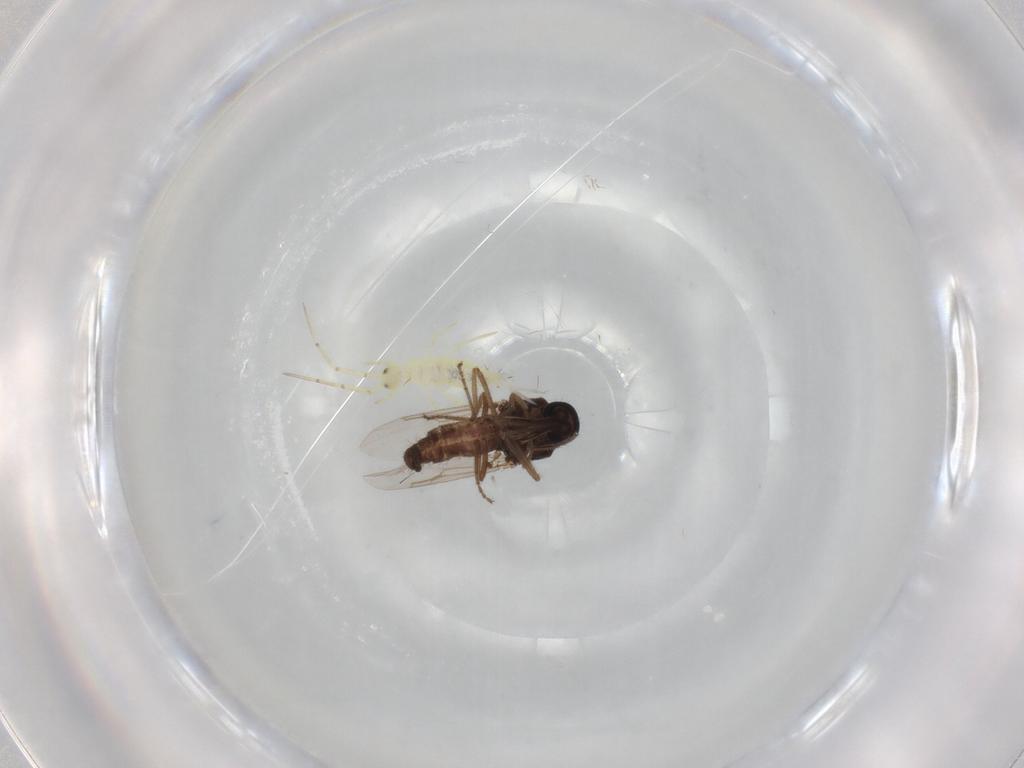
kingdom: Animalia
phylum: Arthropoda
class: Insecta
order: Diptera
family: Ceratopogonidae
